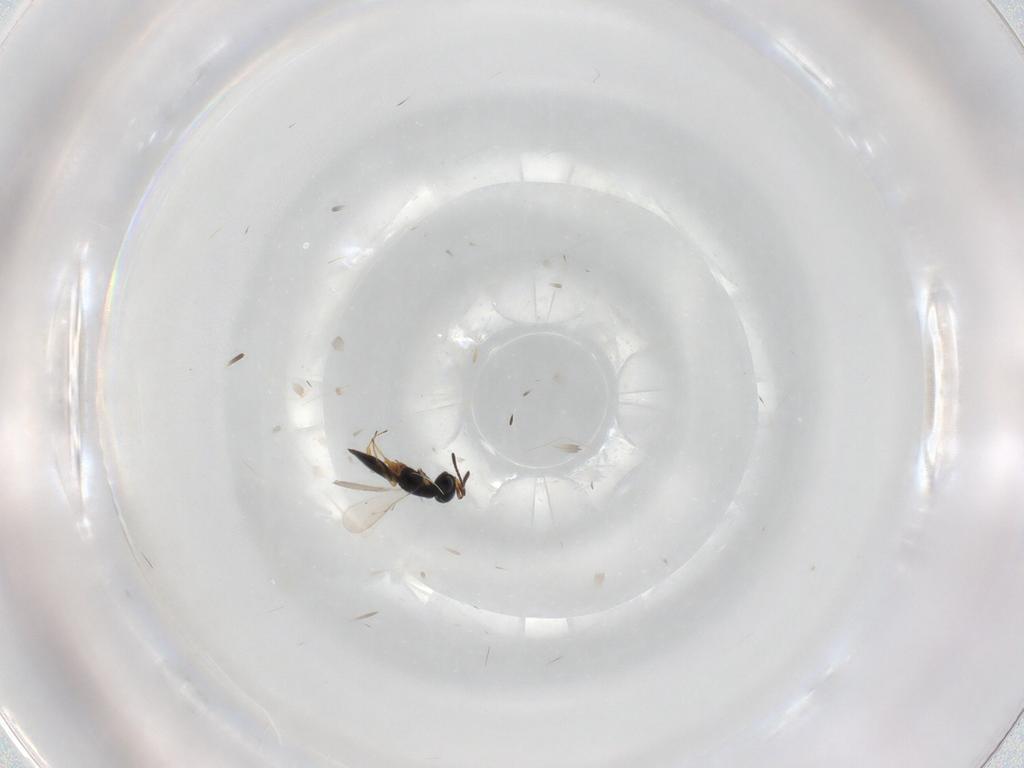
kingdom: Animalia
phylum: Arthropoda
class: Insecta
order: Hymenoptera
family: Scelionidae
